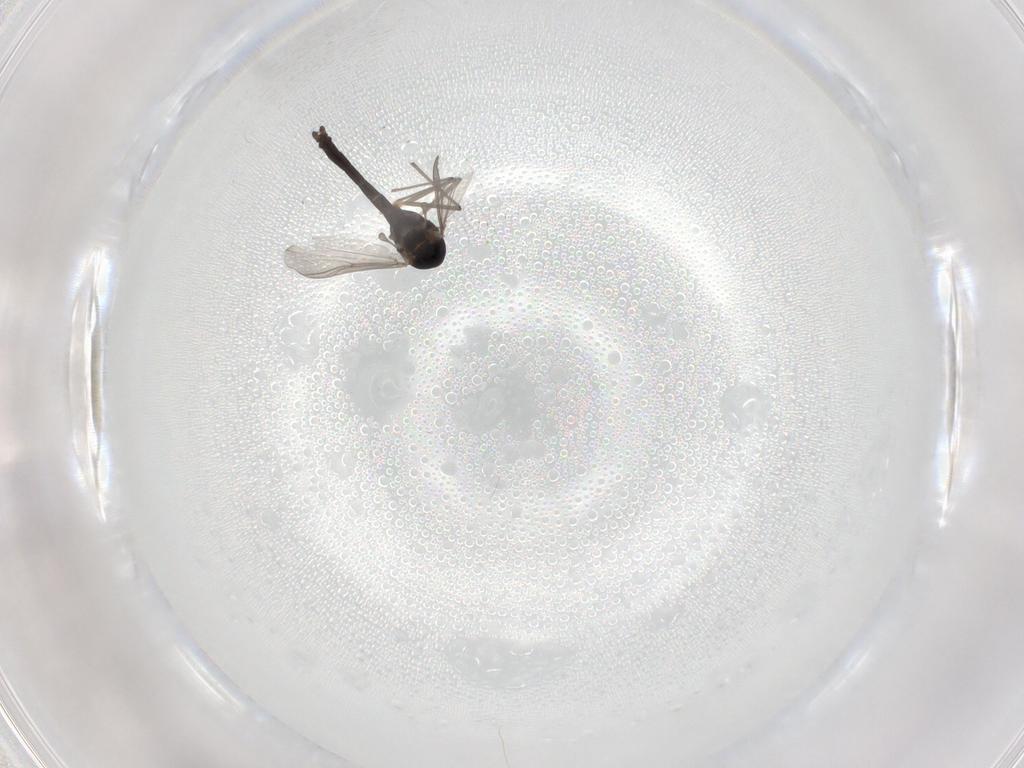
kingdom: Animalia
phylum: Arthropoda
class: Insecta
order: Diptera
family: Chironomidae
